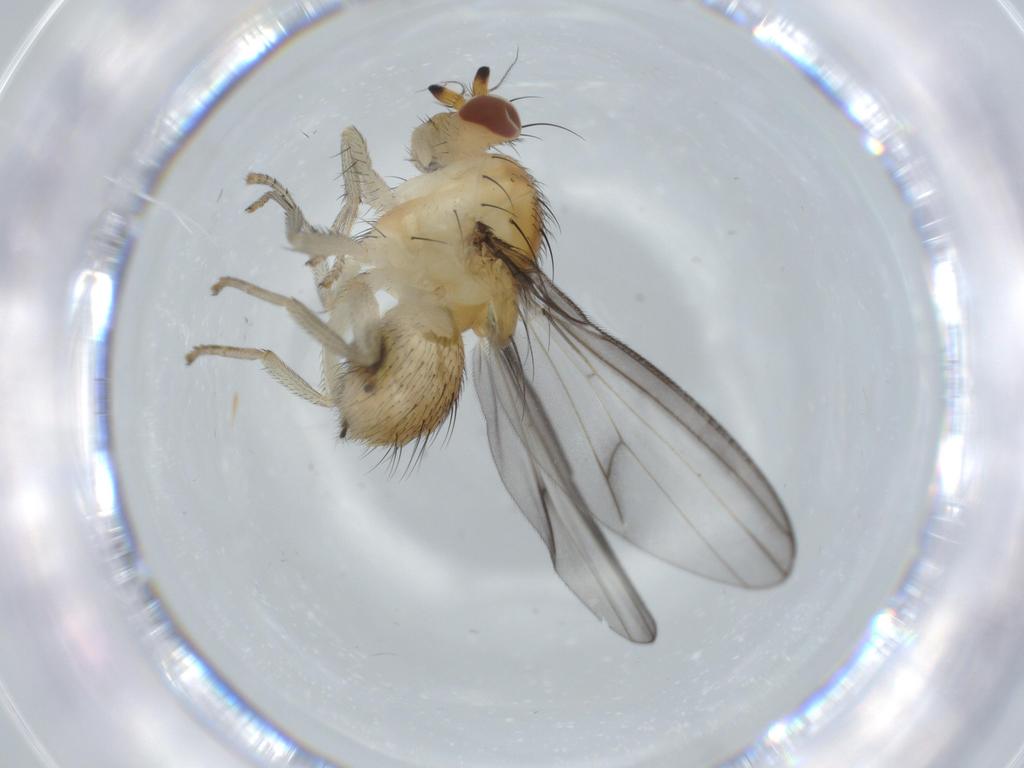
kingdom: Animalia
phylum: Arthropoda
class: Insecta
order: Diptera
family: Lauxaniidae
